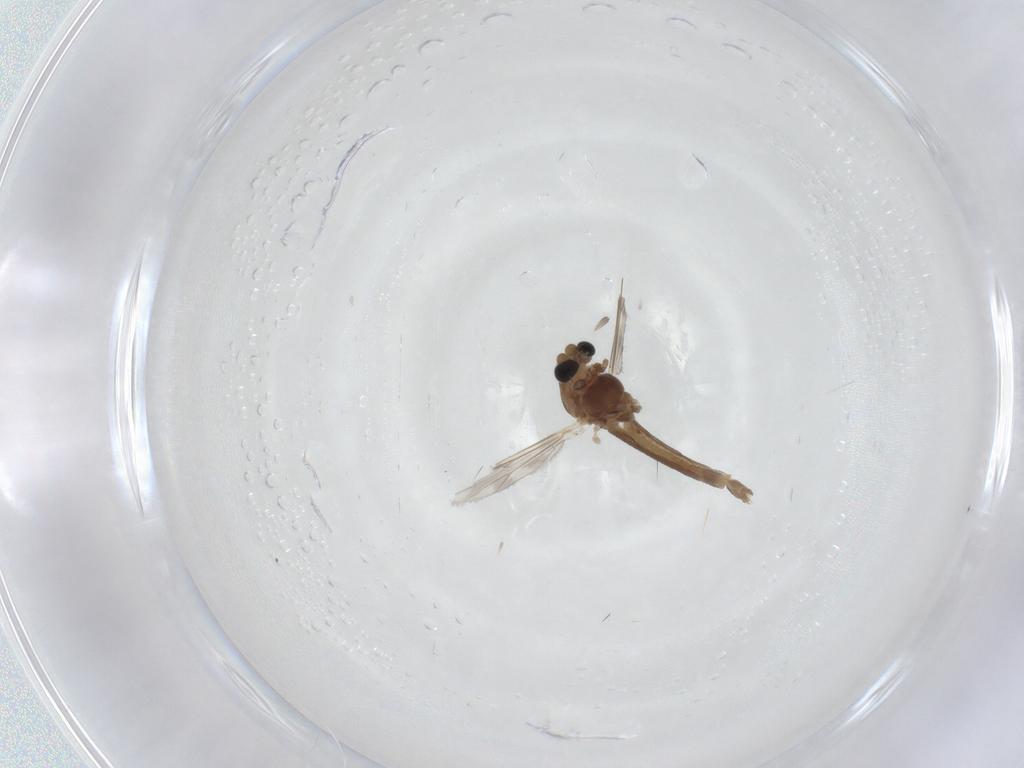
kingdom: Animalia
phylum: Arthropoda
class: Insecta
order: Diptera
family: Chironomidae
